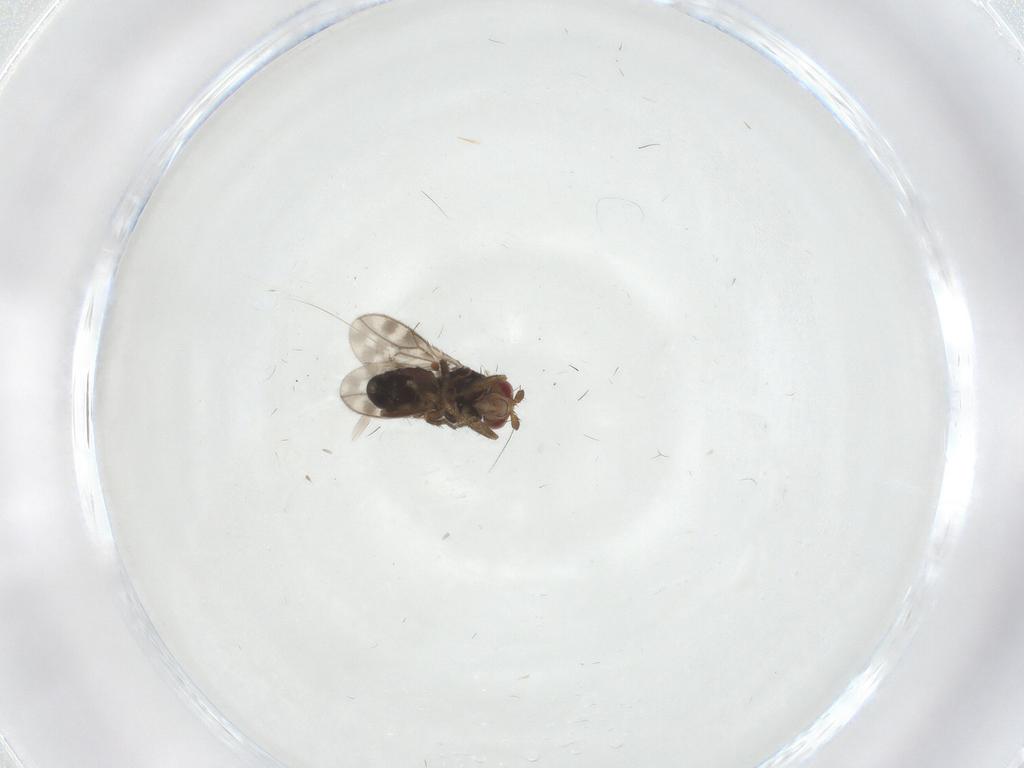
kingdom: Animalia
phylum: Arthropoda
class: Insecta
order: Diptera
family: Sphaeroceridae
